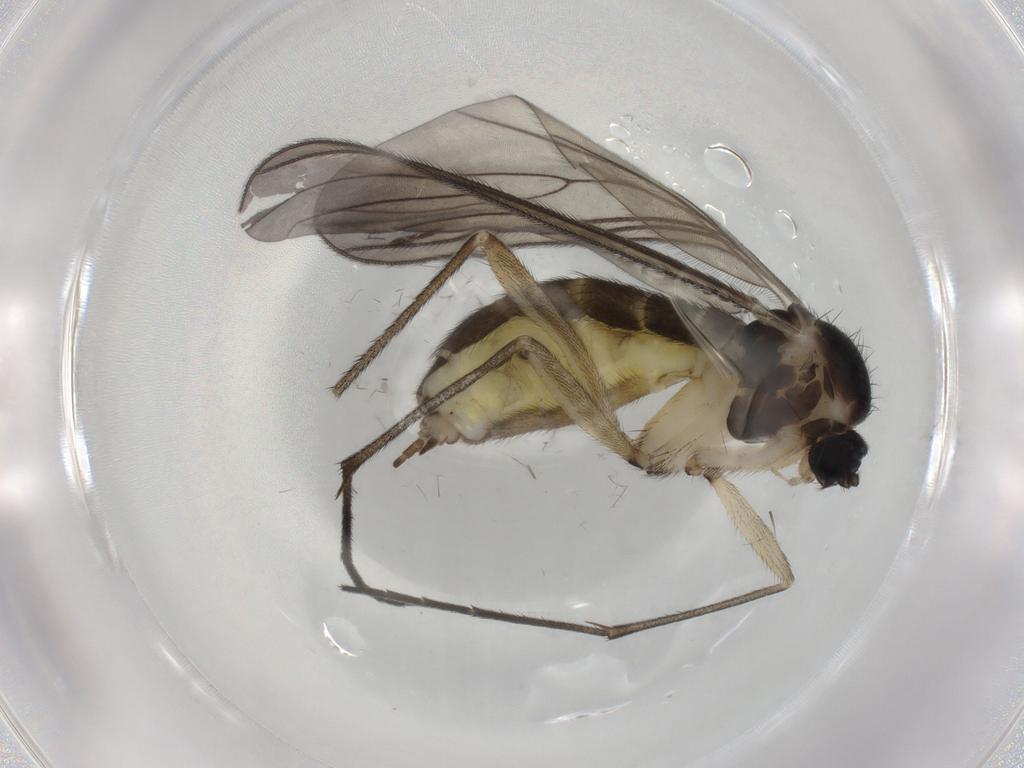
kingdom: Animalia
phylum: Arthropoda
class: Insecta
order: Diptera
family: Sciaridae
